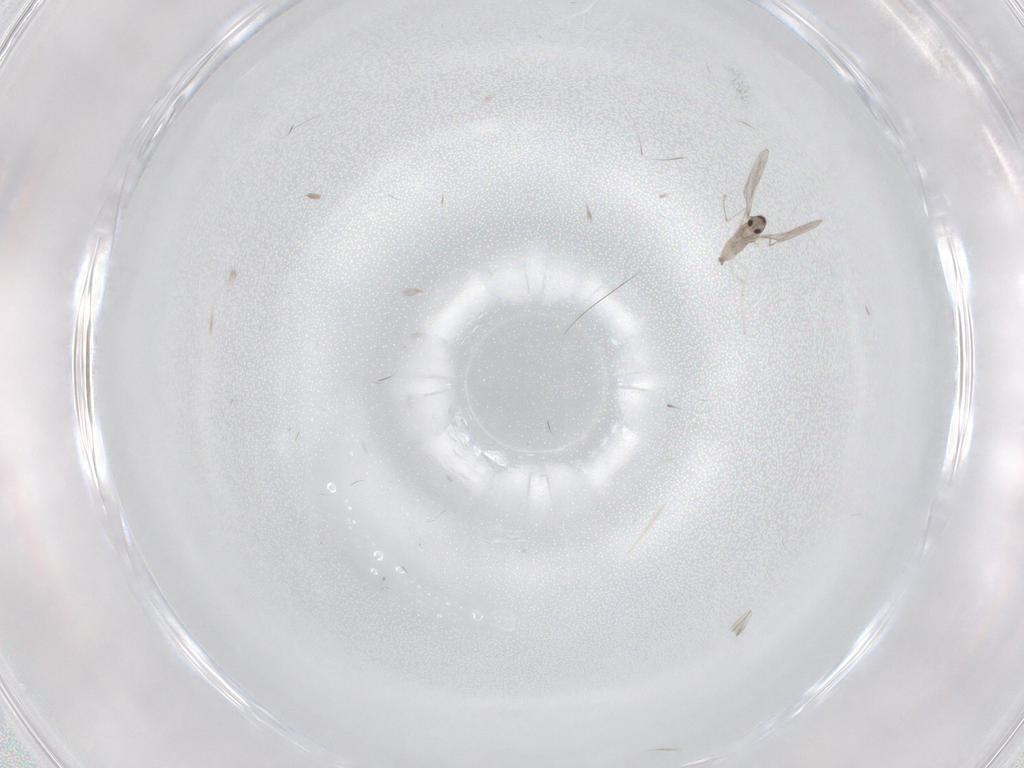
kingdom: Animalia
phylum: Arthropoda
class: Insecta
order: Diptera
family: Cecidomyiidae
